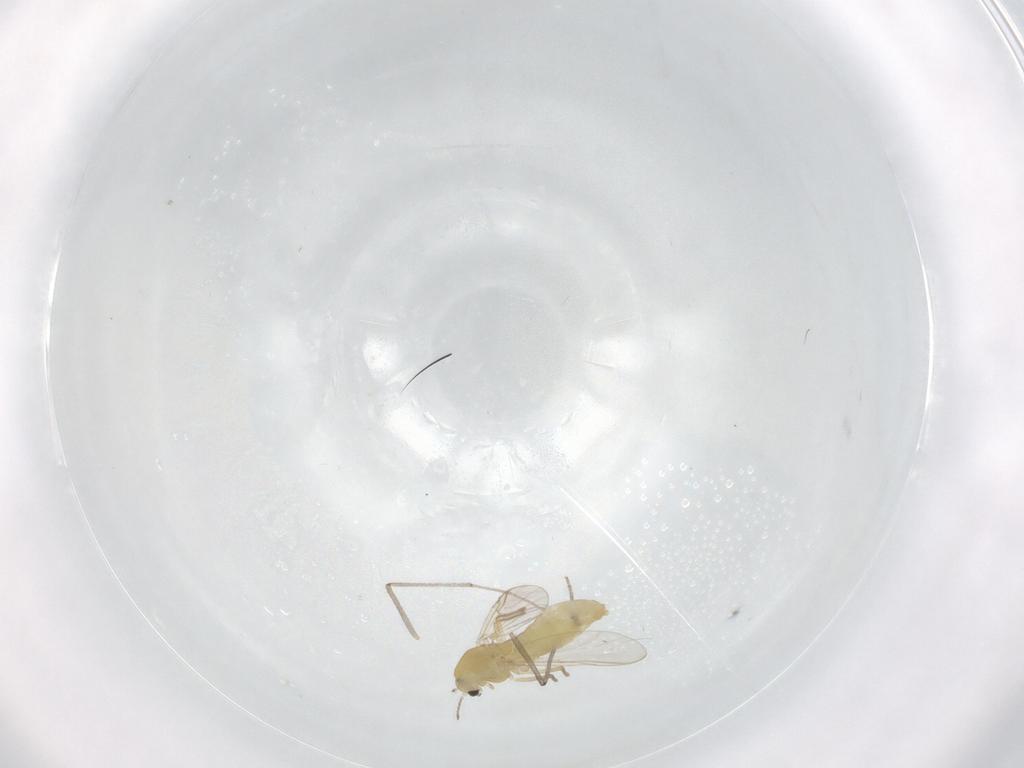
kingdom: Animalia
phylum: Arthropoda
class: Insecta
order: Diptera
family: Chironomidae
